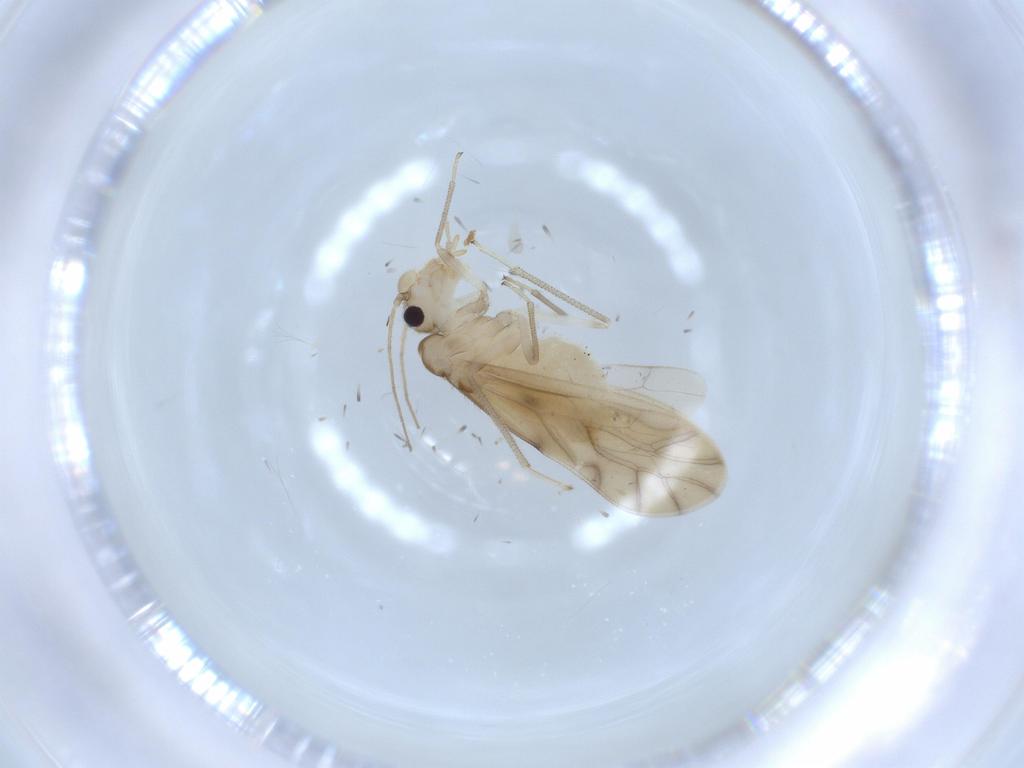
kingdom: Animalia
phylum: Arthropoda
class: Insecta
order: Psocodea
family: Caeciliusidae
